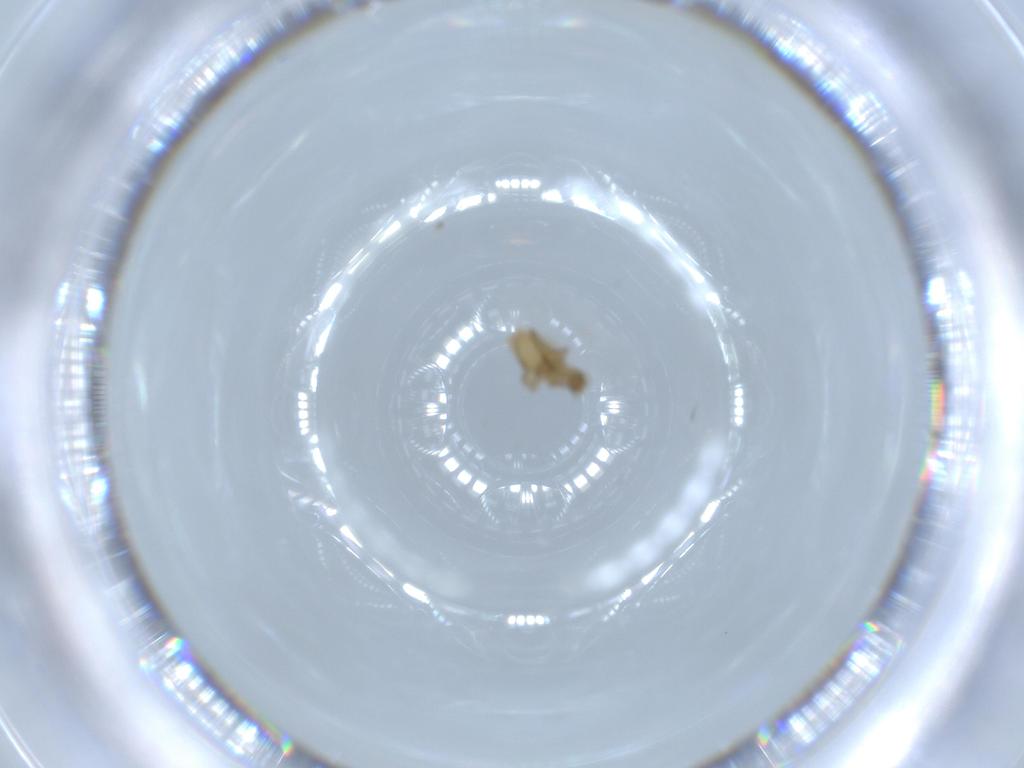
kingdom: Animalia
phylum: Arthropoda
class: Insecta
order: Diptera
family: Phoridae
